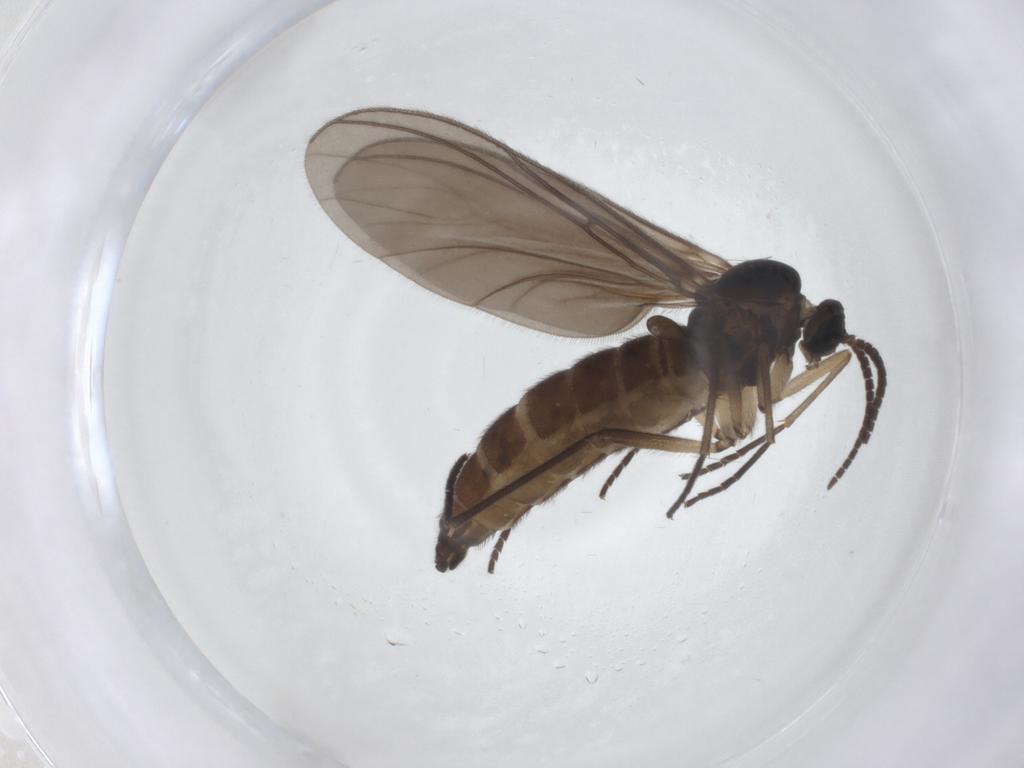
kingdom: Animalia
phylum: Arthropoda
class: Insecta
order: Diptera
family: Sciaridae
